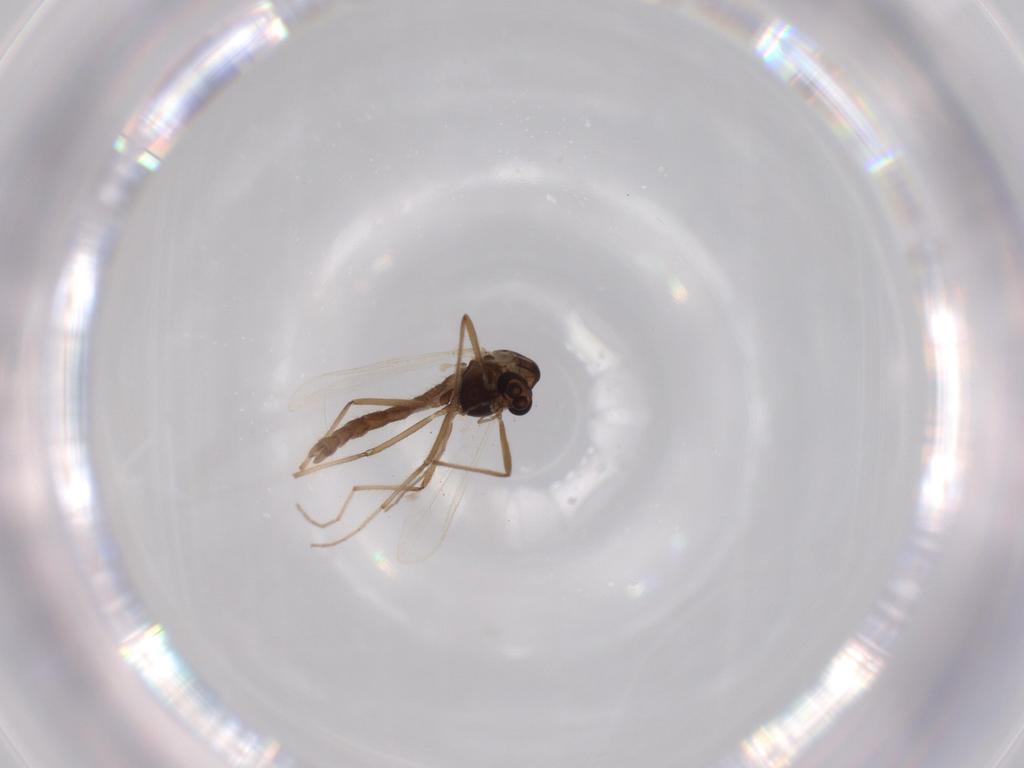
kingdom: Animalia
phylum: Arthropoda
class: Insecta
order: Diptera
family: Chironomidae
